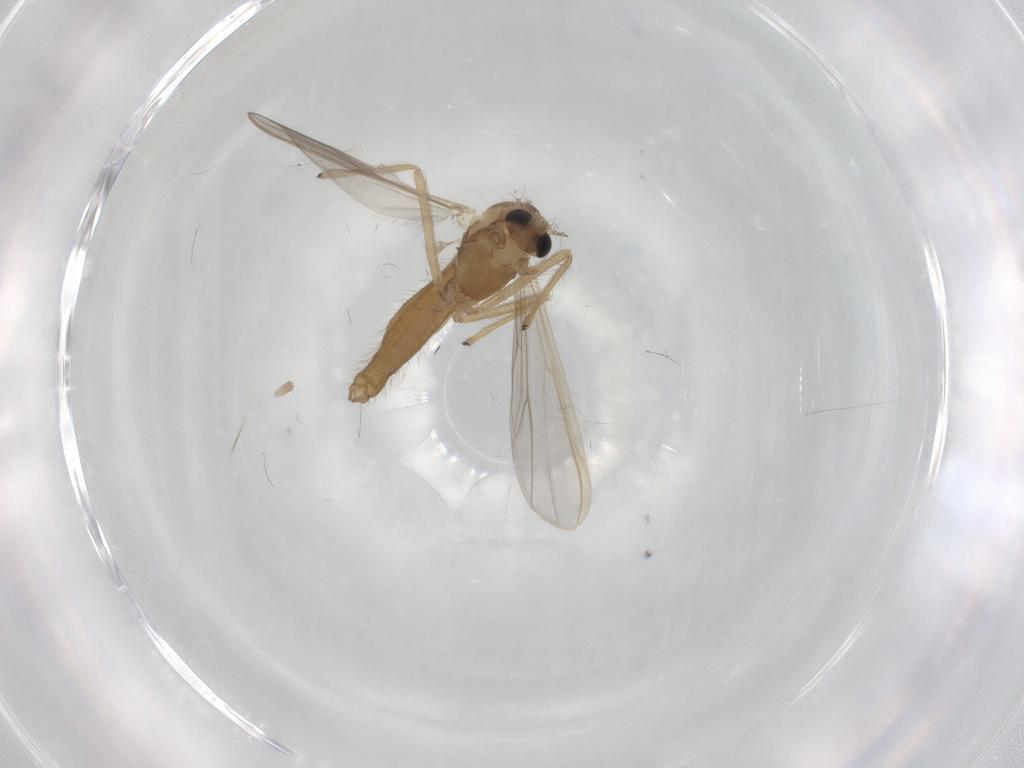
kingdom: Animalia
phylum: Arthropoda
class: Insecta
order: Diptera
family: Chironomidae
